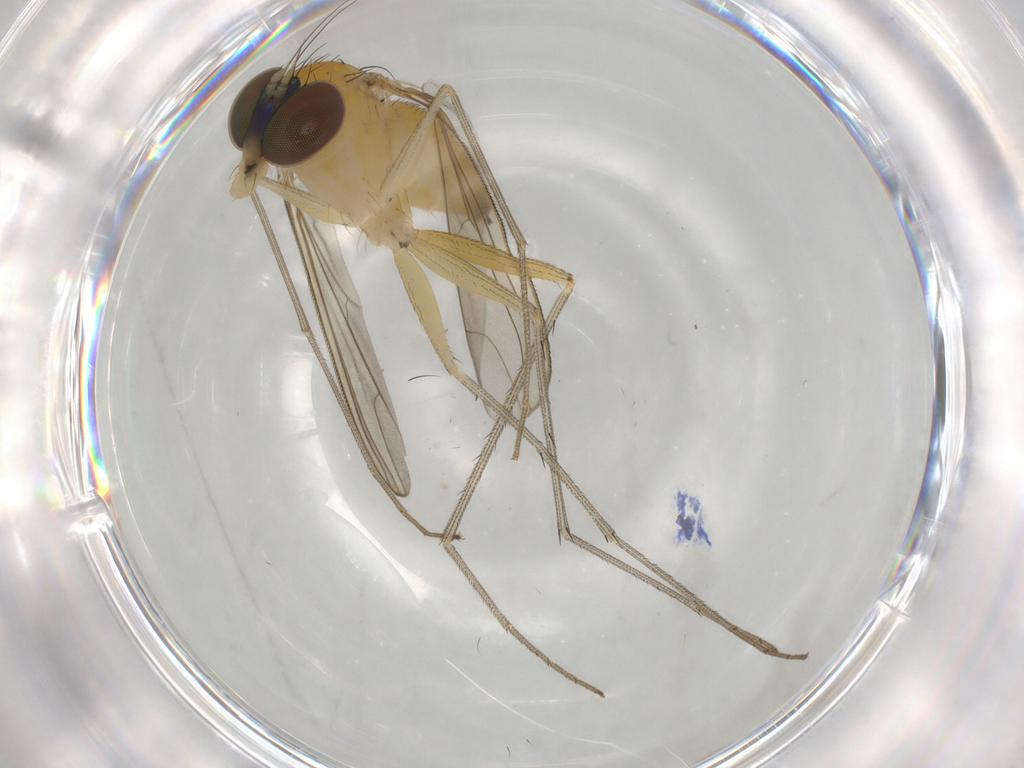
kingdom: Animalia
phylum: Arthropoda
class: Insecta
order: Diptera
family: Dolichopodidae
